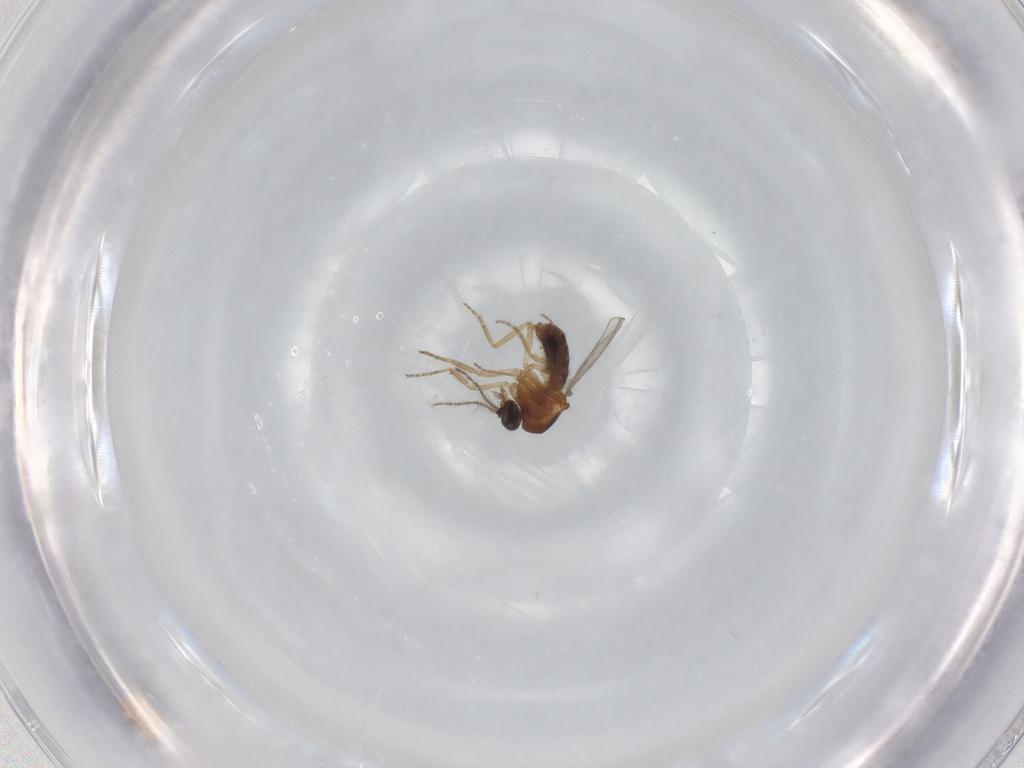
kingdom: Animalia
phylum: Arthropoda
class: Insecta
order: Diptera
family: Ceratopogonidae
